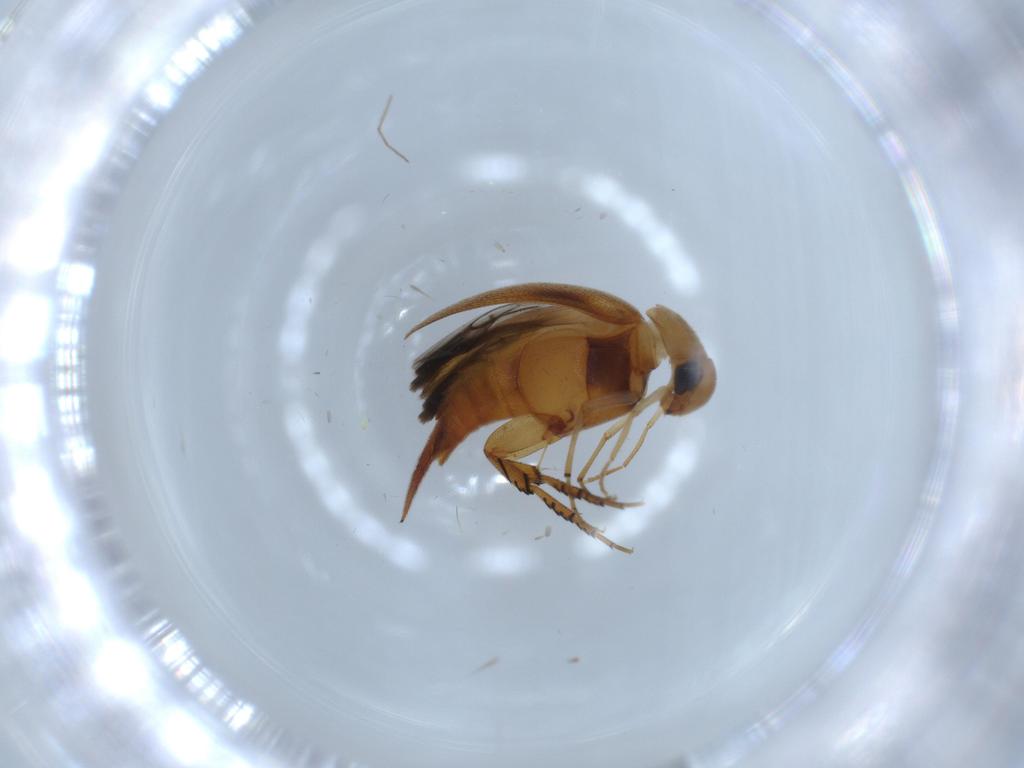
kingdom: Animalia
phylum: Arthropoda
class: Insecta
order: Coleoptera
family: Mordellidae
